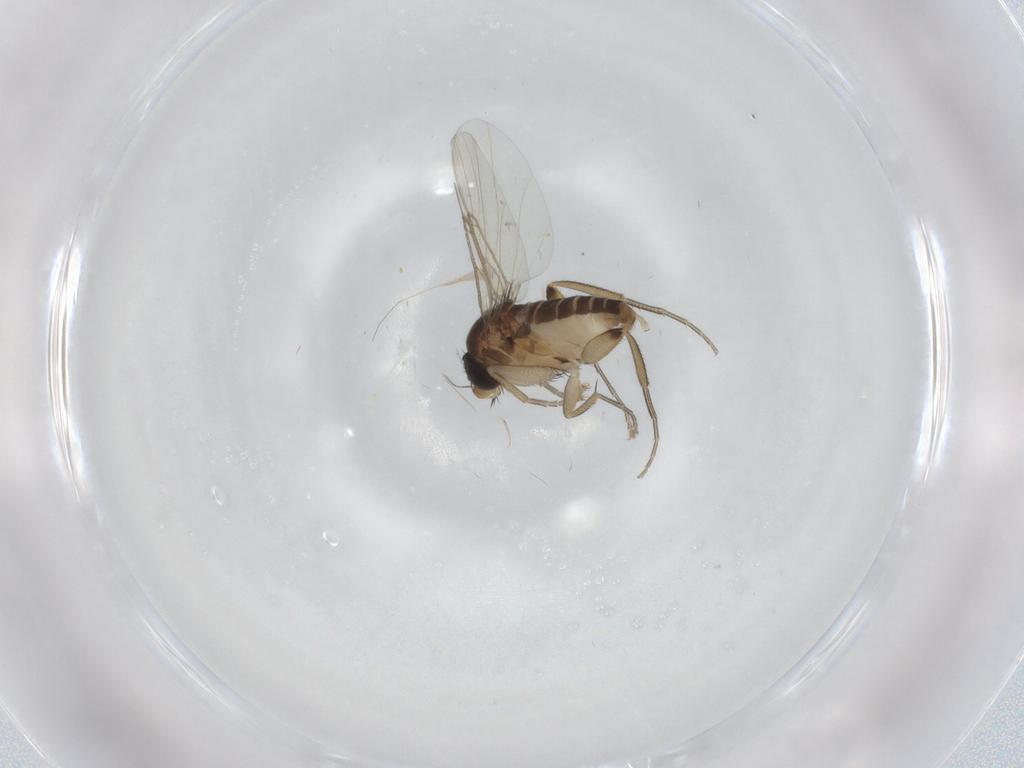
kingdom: Animalia
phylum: Arthropoda
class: Insecta
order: Diptera
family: Phoridae
